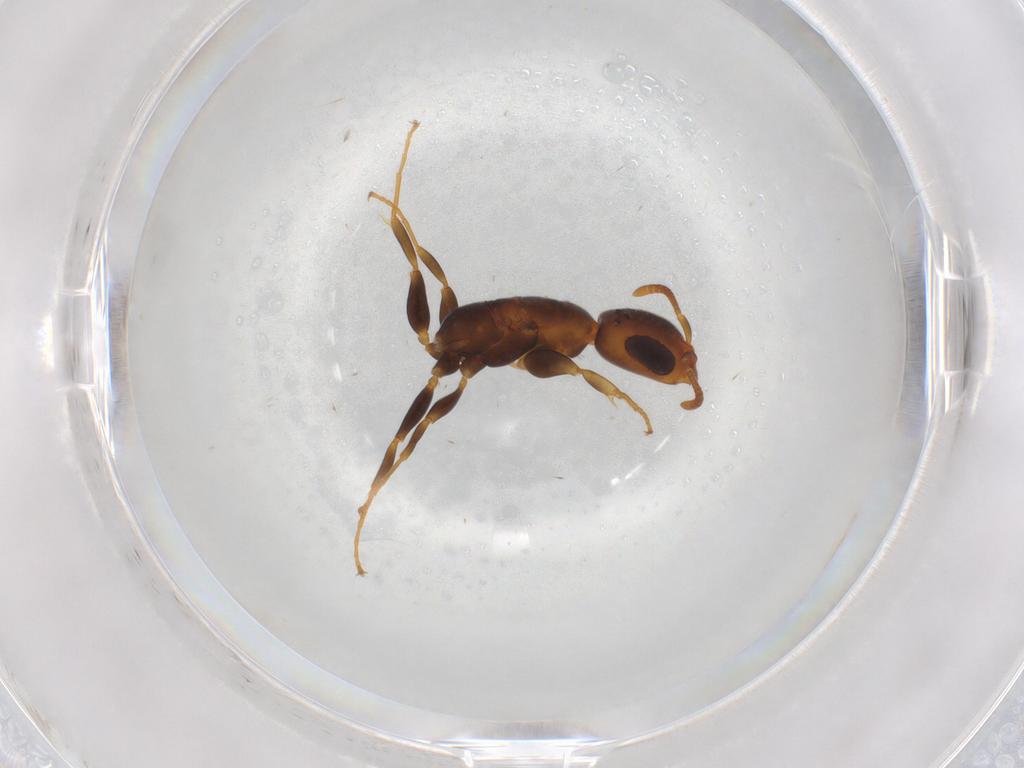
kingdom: Animalia
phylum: Arthropoda
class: Insecta
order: Hymenoptera
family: Formicidae
